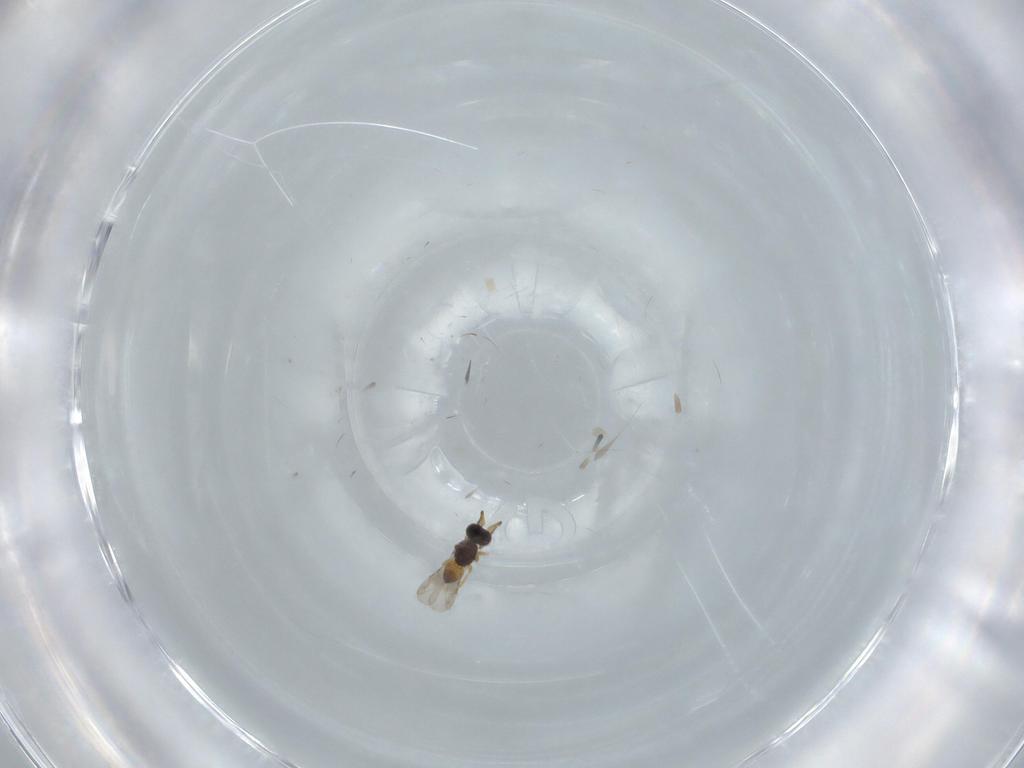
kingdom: Animalia
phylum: Arthropoda
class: Insecta
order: Hymenoptera
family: Ceraphronidae
